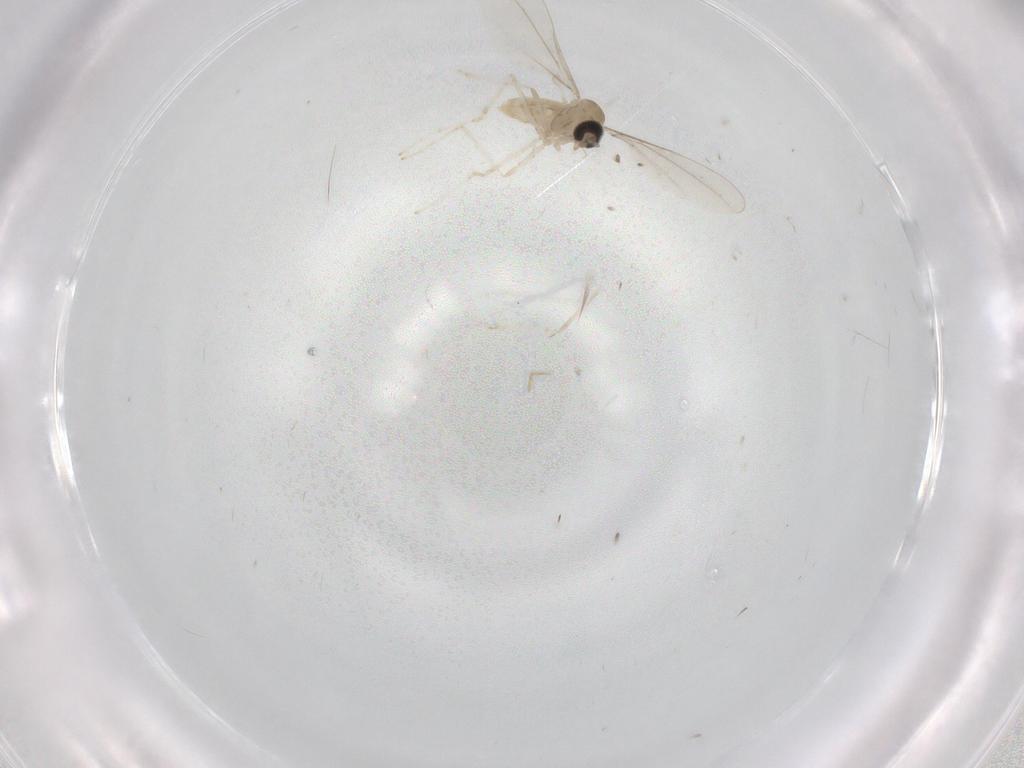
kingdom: Animalia
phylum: Arthropoda
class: Insecta
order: Diptera
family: Cecidomyiidae
